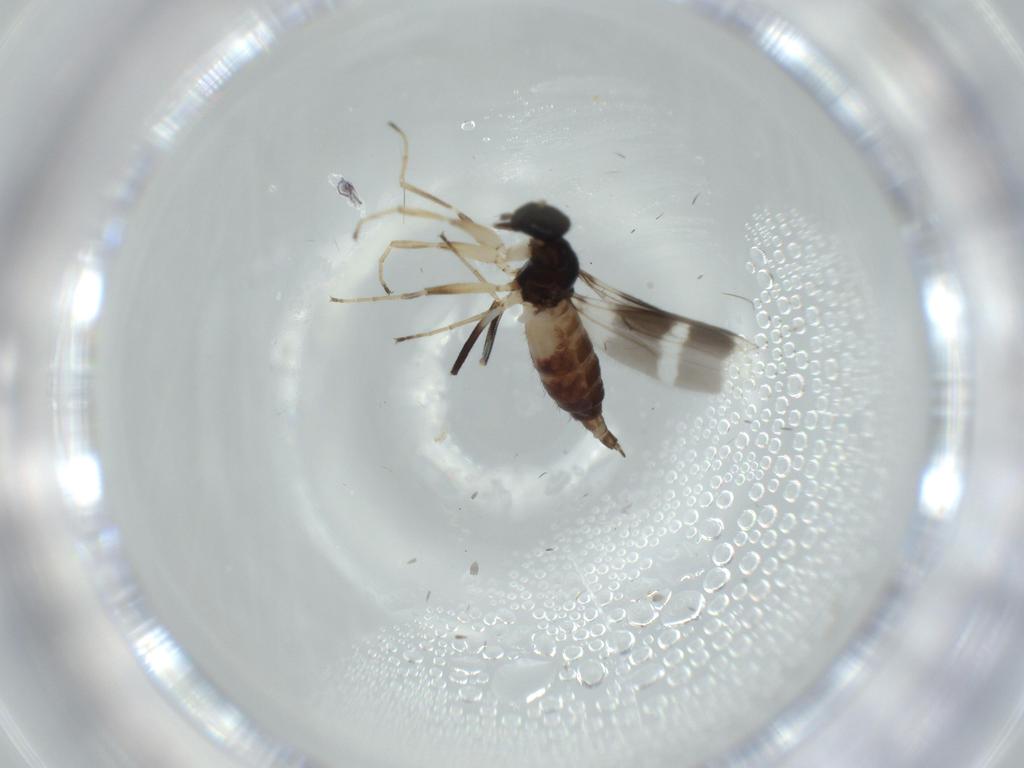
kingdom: Animalia
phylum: Arthropoda
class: Insecta
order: Diptera
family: Hybotidae
